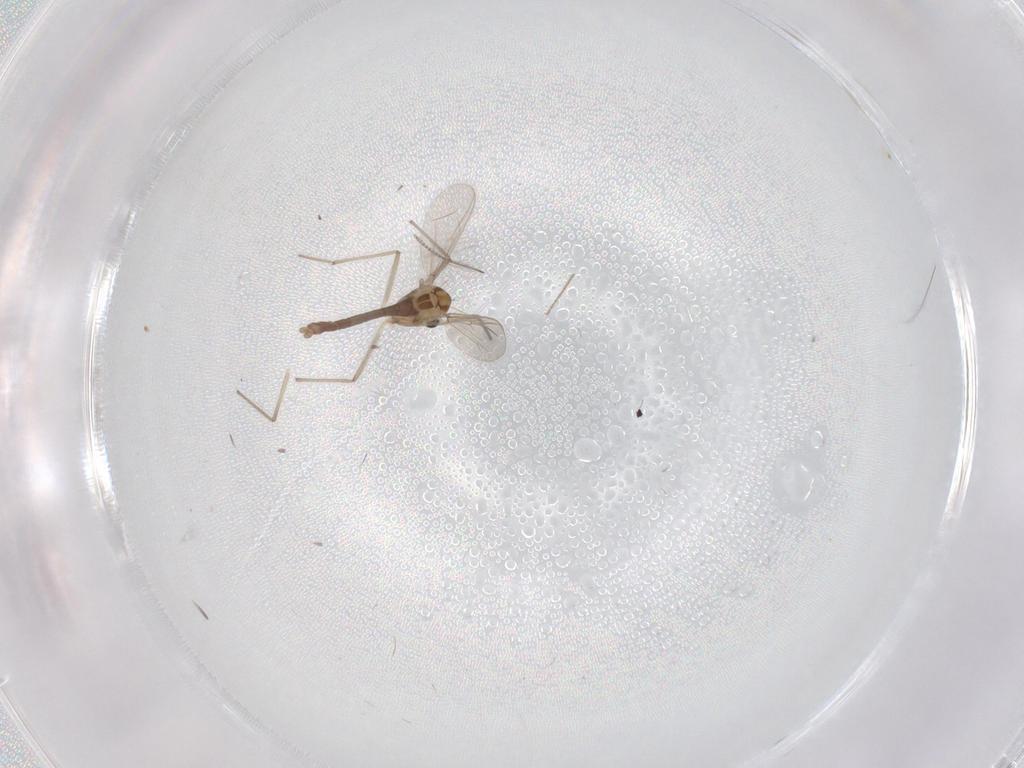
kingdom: Animalia
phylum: Arthropoda
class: Insecta
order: Diptera
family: Chironomidae
